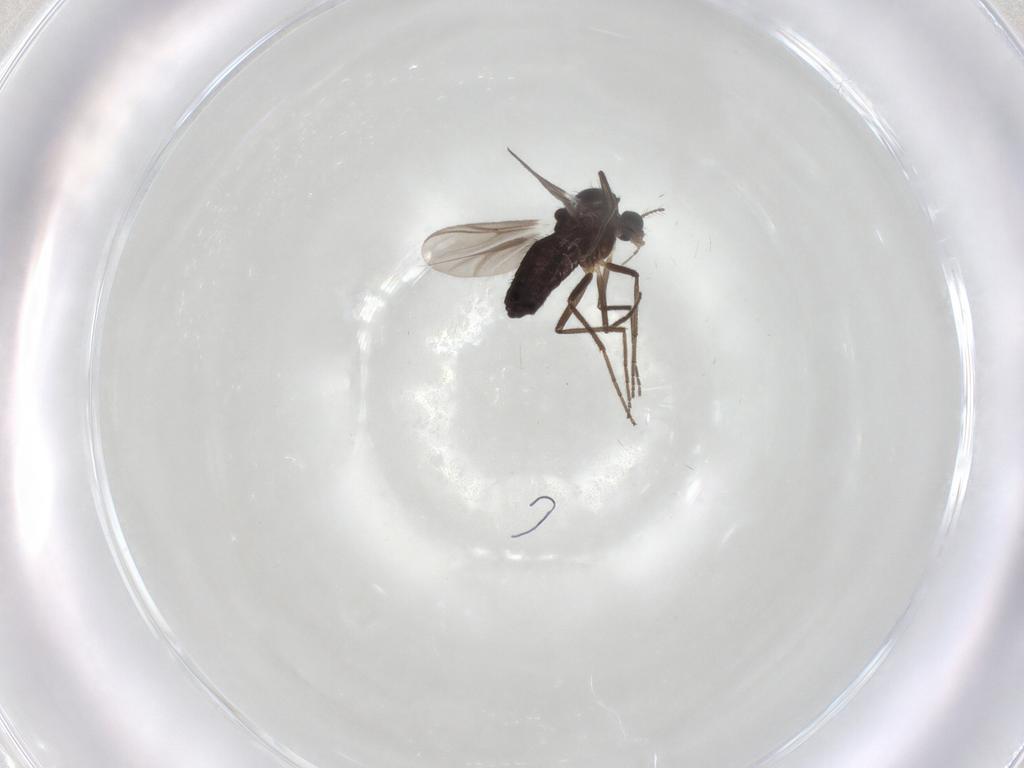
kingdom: Animalia
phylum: Arthropoda
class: Insecta
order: Diptera
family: Chironomidae
